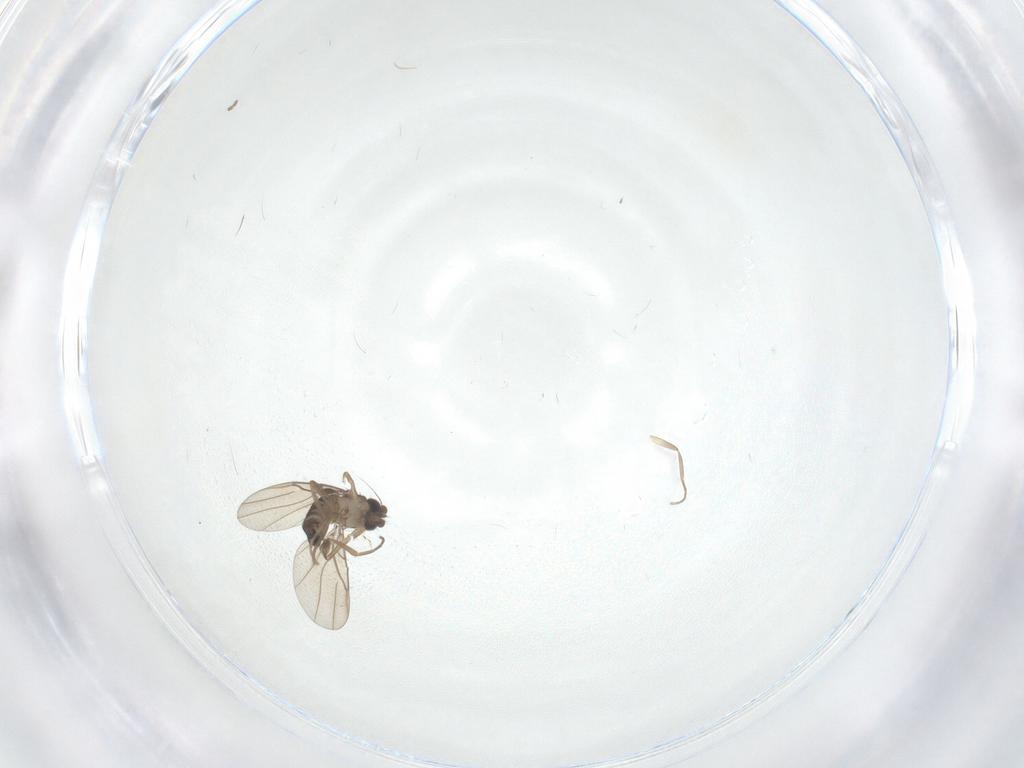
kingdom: Animalia
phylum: Arthropoda
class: Insecta
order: Diptera
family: Phoridae
